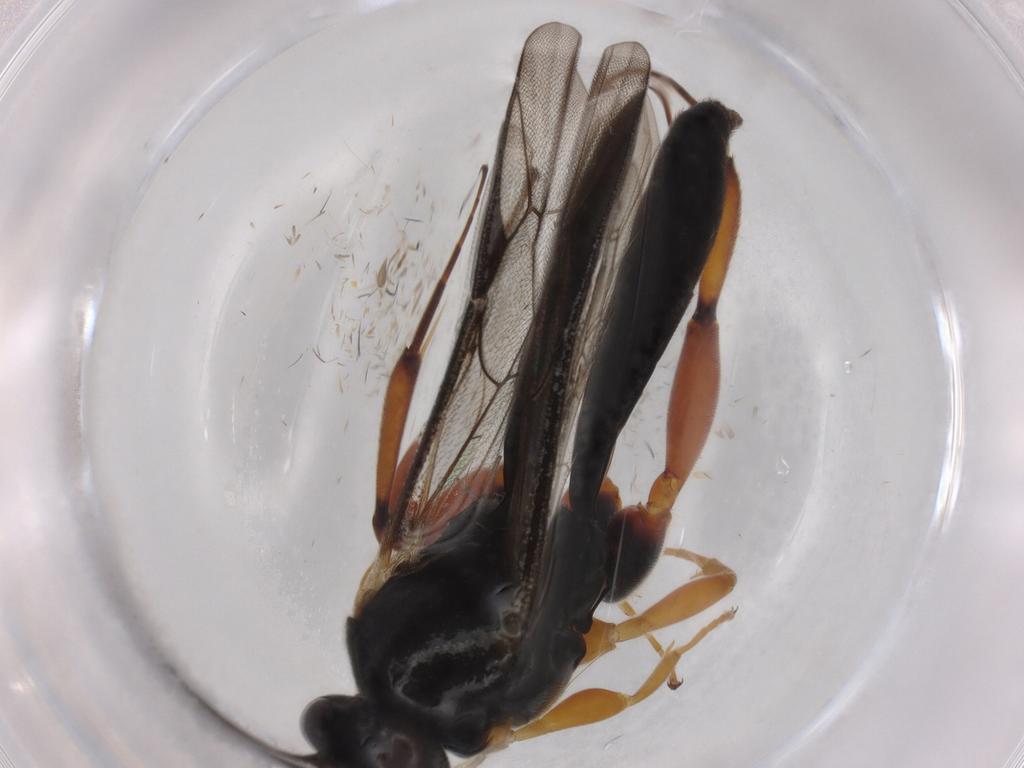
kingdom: Animalia
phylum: Arthropoda
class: Insecta
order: Hymenoptera
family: Ichneumonidae
